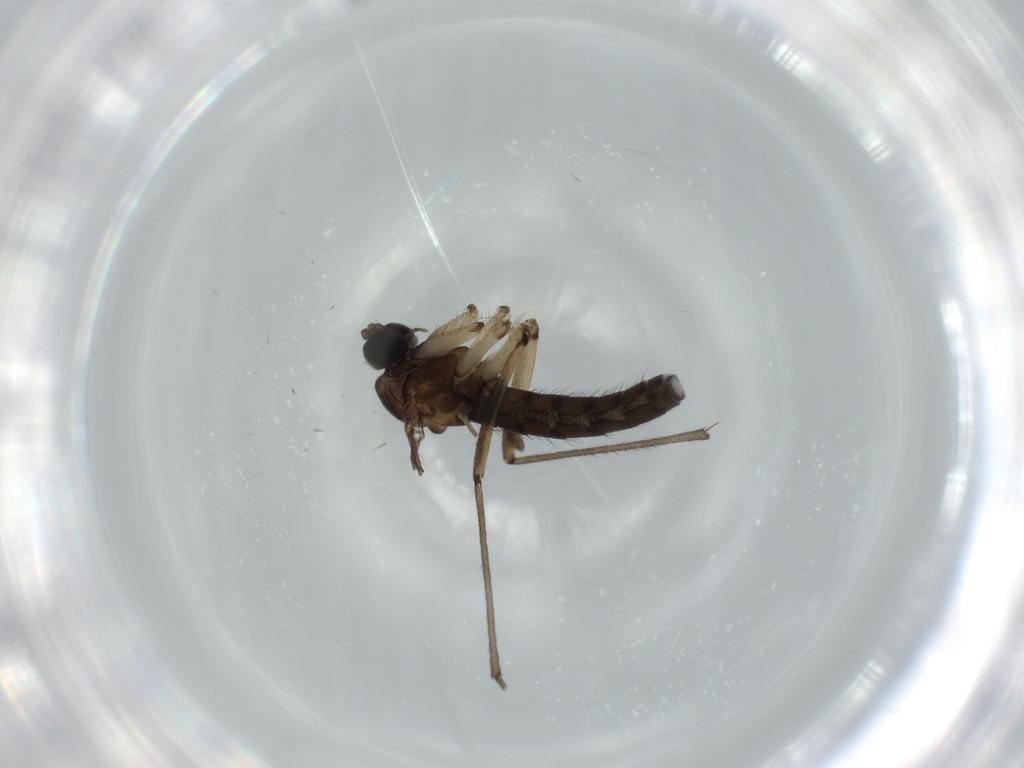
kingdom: Animalia
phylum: Arthropoda
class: Insecta
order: Diptera
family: Sciaridae
